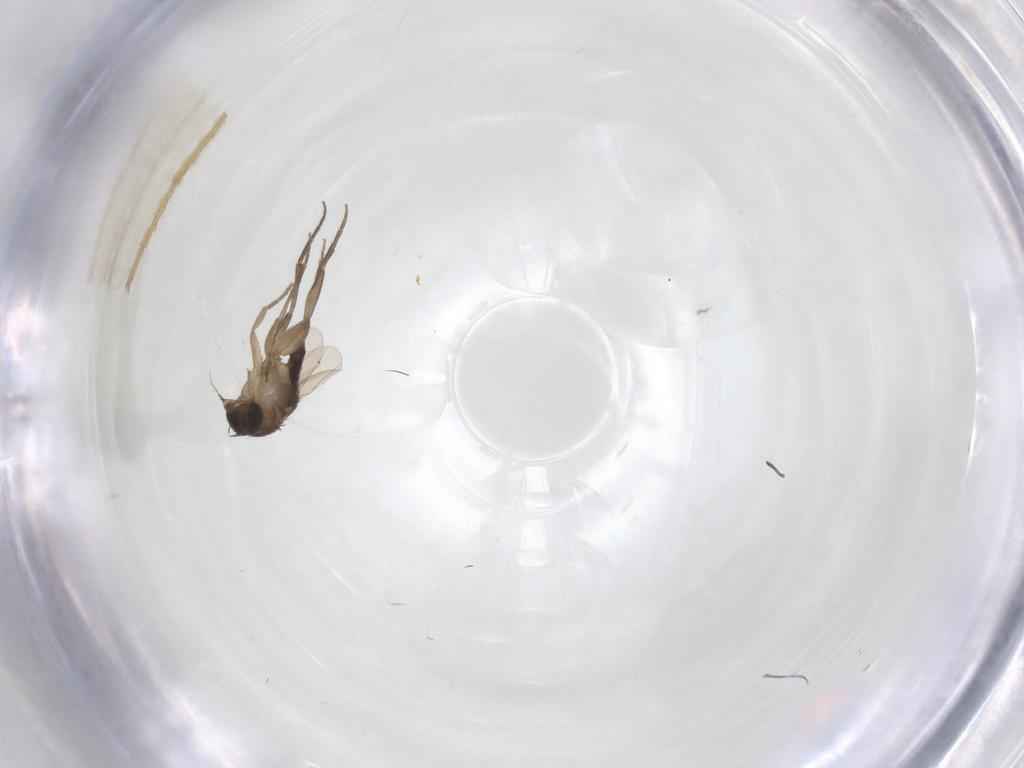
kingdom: Animalia
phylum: Arthropoda
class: Insecta
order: Diptera
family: Phoridae
